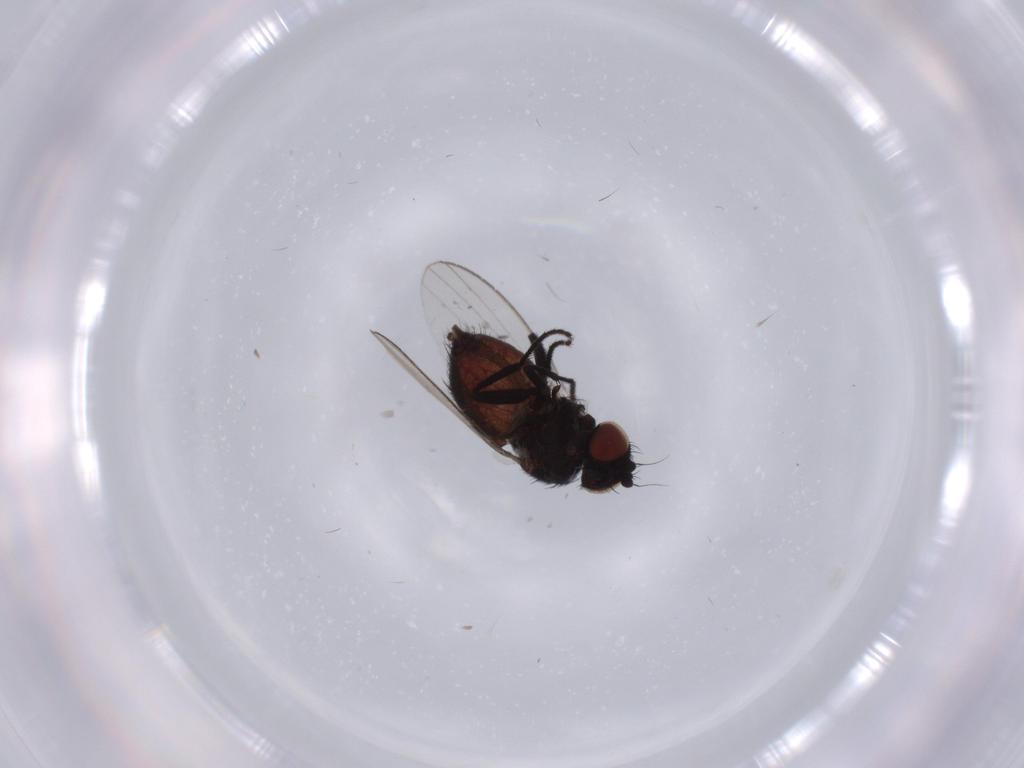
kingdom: Animalia
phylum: Arthropoda
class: Insecta
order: Diptera
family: Milichiidae
